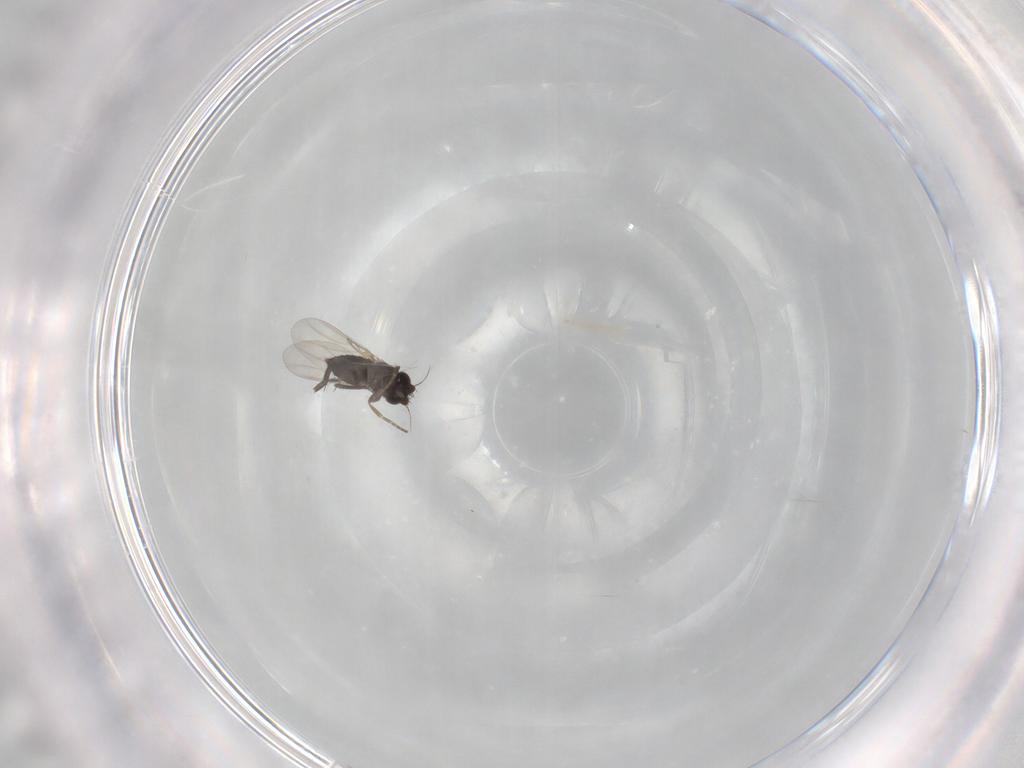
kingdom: Animalia
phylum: Arthropoda
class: Insecta
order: Diptera
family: Phoridae
